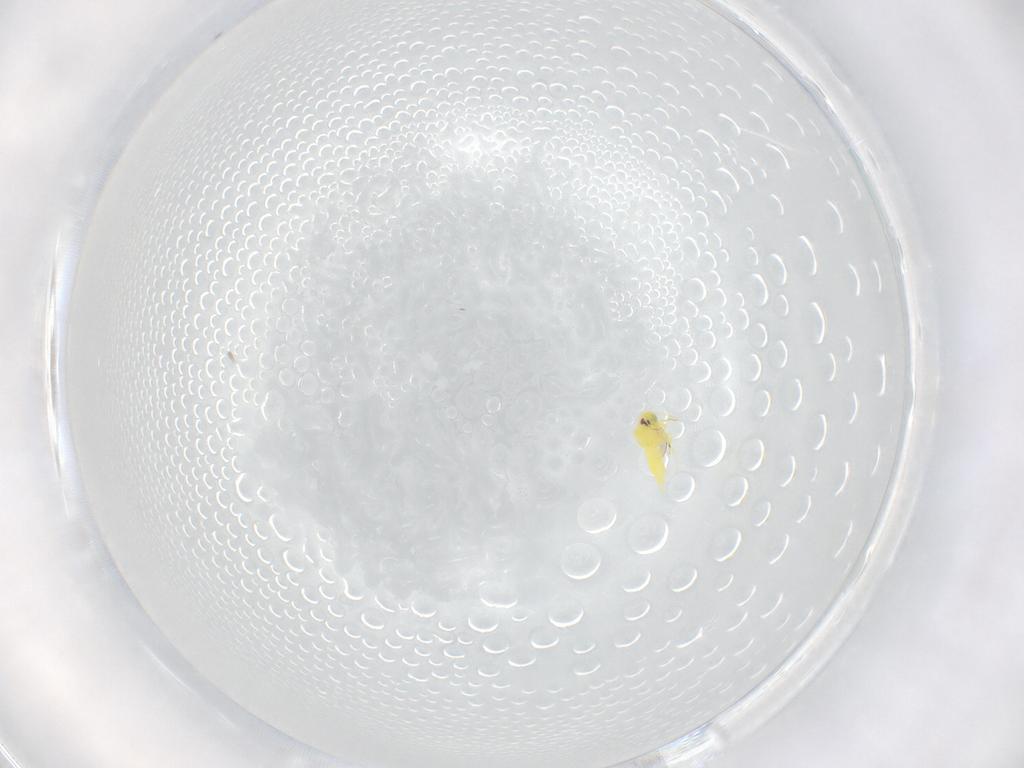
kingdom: Animalia
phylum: Arthropoda
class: Insecta
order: Hemiptera
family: Aleyrodidae
